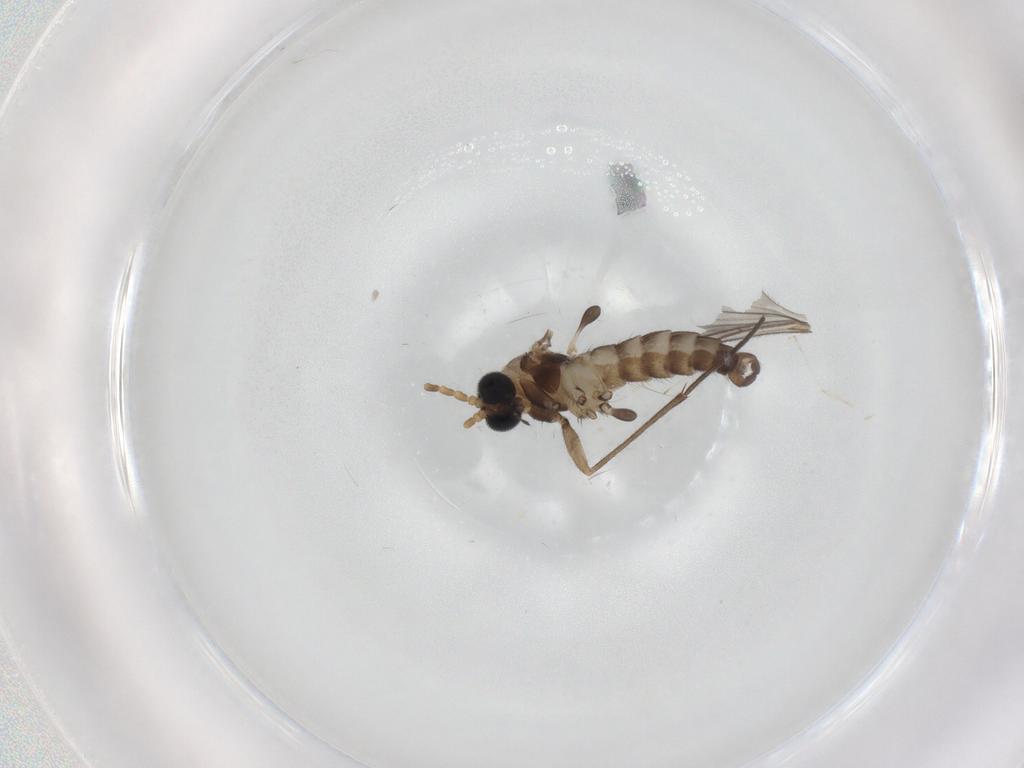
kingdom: Animalia
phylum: Arthropoda
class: Insecta
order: Diptera
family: Sciaridae
